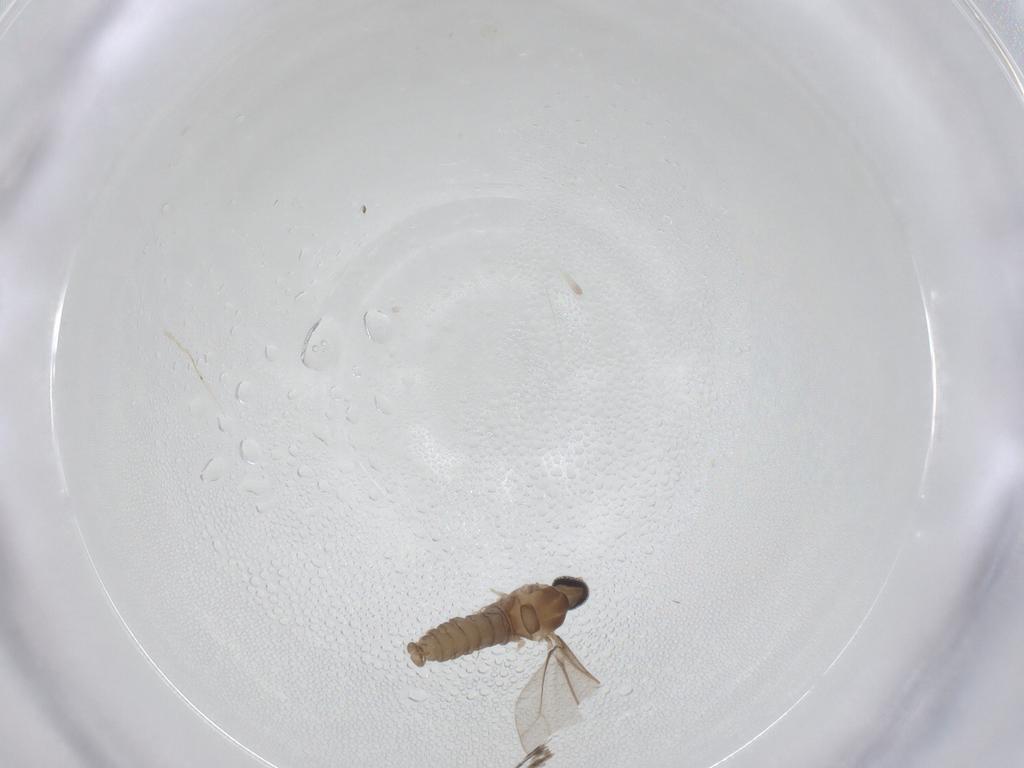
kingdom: Animalia
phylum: Arthropoda
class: Insecta
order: Diptera
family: Cecidomyiidae
